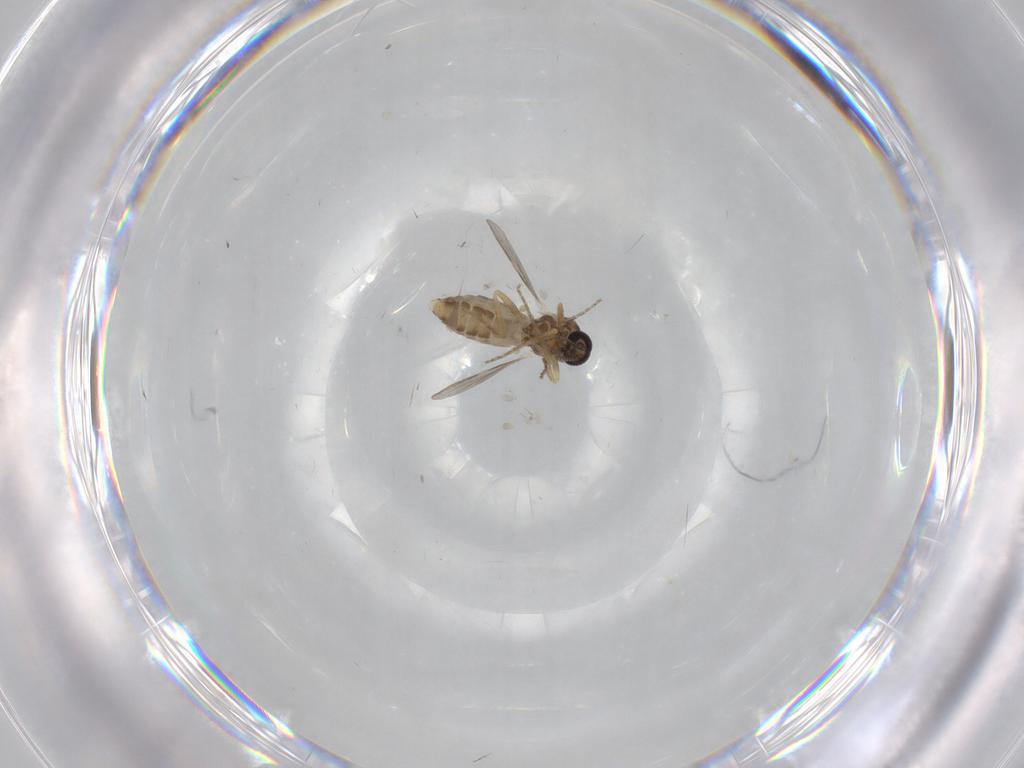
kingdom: Animalia
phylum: Arthropoda
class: Insecta
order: Diptera
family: Ceratopogonidae
